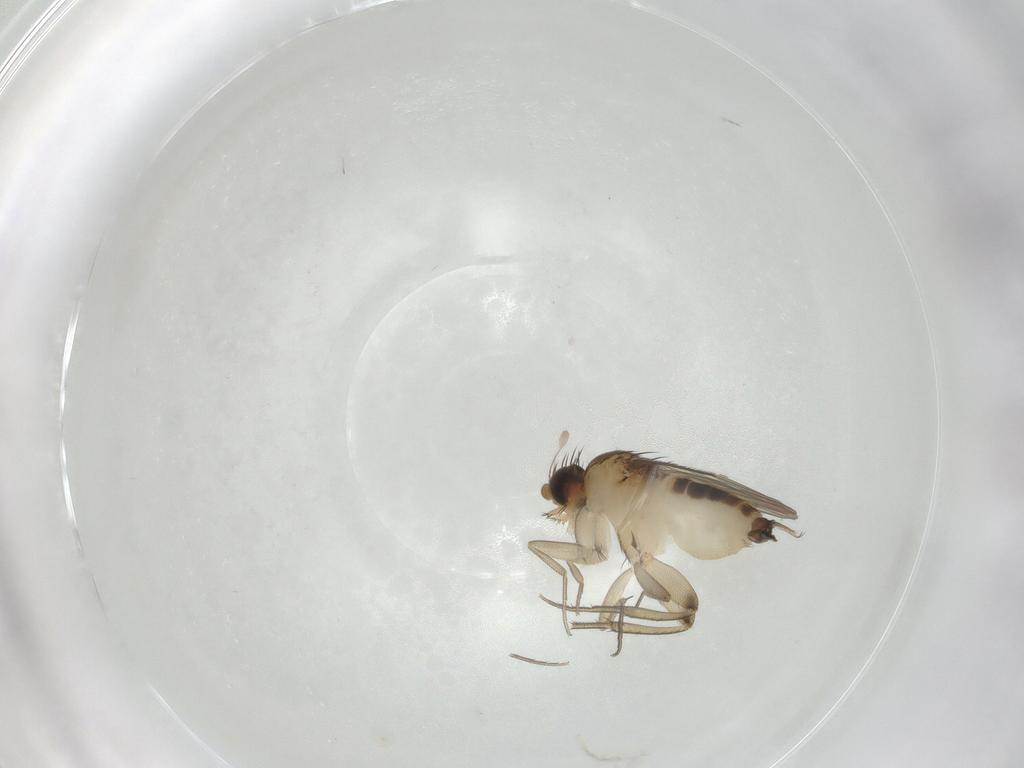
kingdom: Animalia
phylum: Arthropoda
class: Insecta
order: Diptera
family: Phoridae
